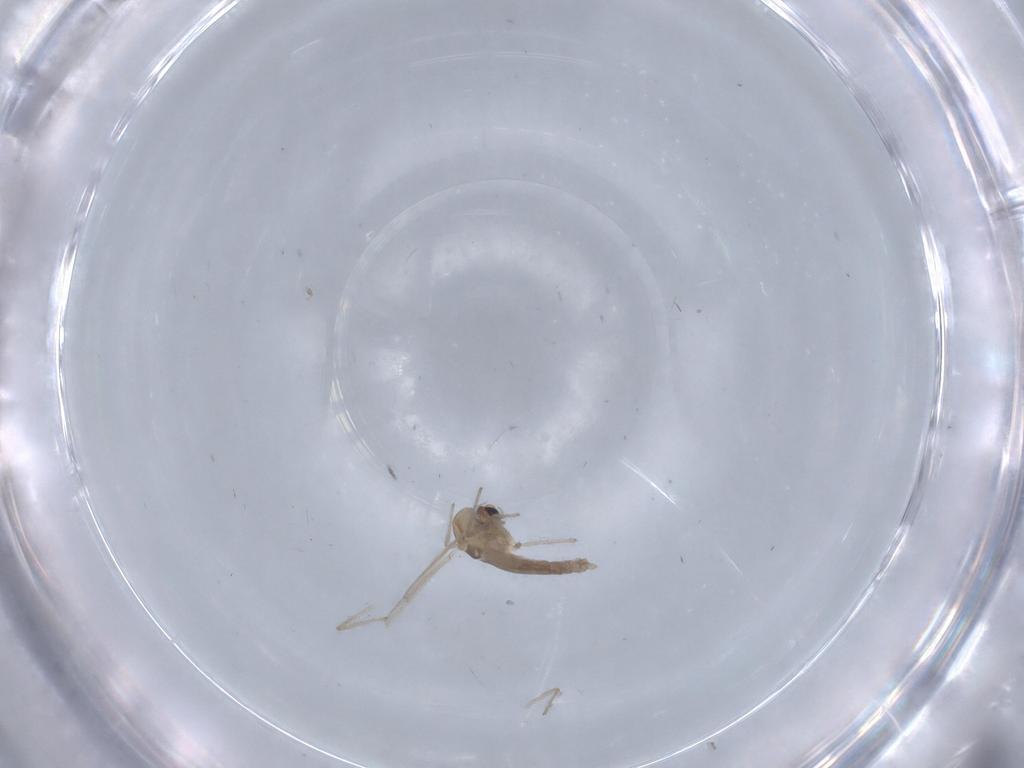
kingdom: Animalia
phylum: Arthropoda
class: Insecta
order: Diptera
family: Chironomidae
